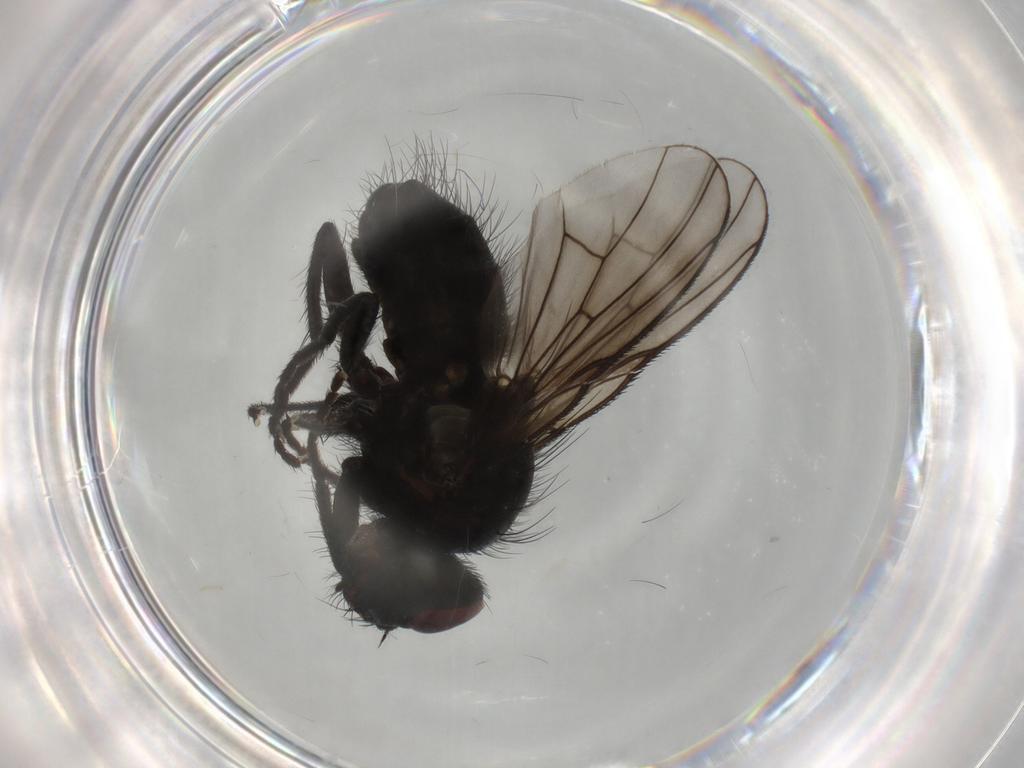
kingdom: Animalia
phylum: Arthropoda
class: Insecta
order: Diptera
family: Muscidae
